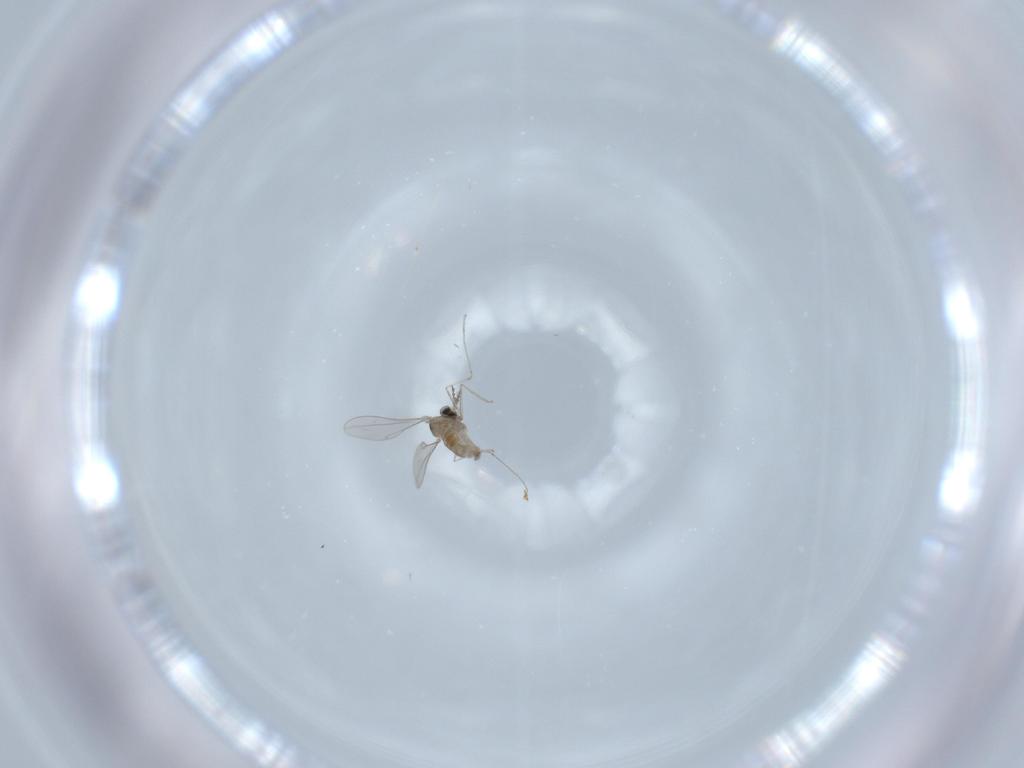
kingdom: Animalia
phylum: Arthropoda
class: Insecta
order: Diptera
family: Cecidomyiidae
